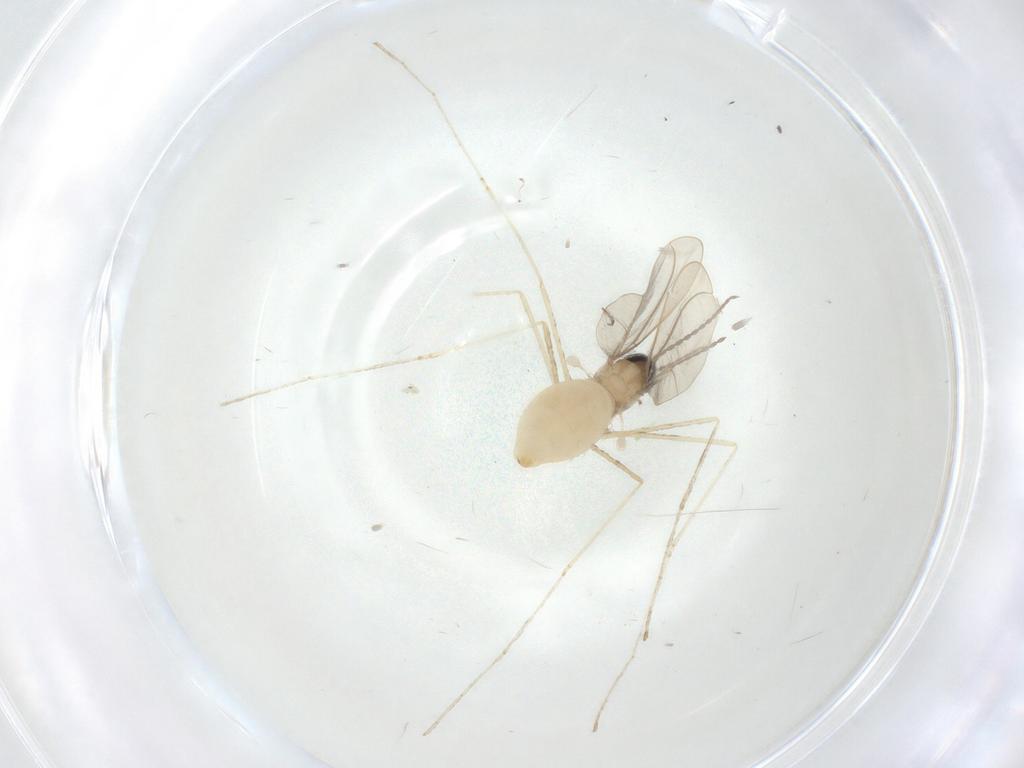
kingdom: Animalia
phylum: Arthropoda
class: Insecta
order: Diptera
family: Cecidomyiidae
